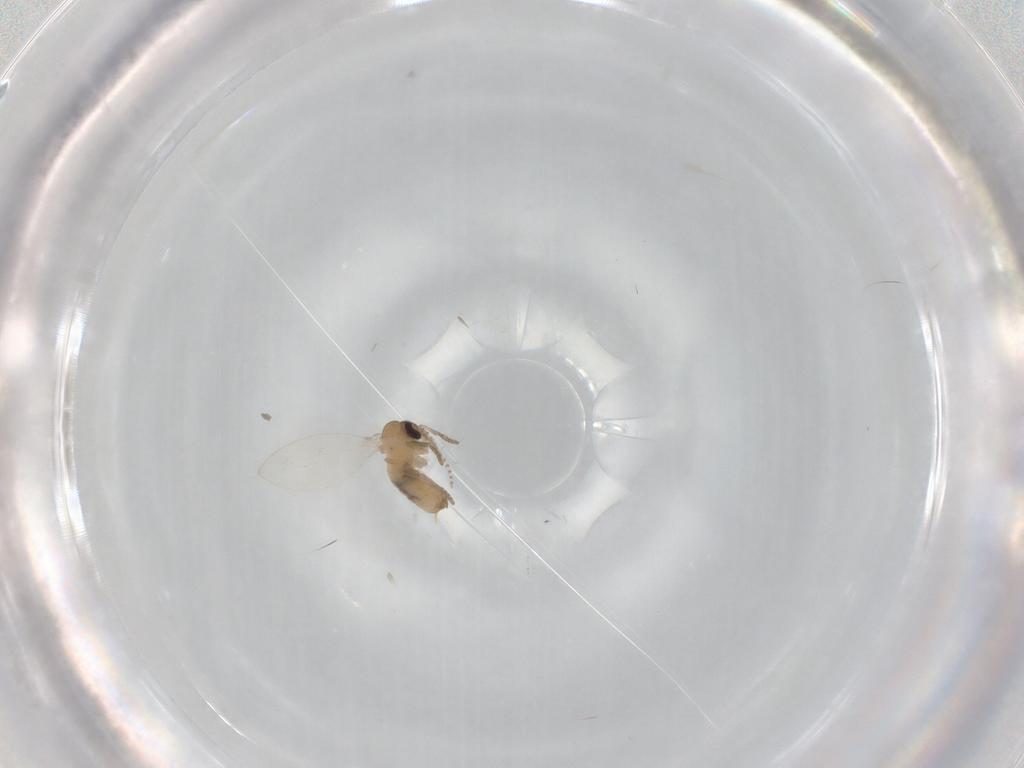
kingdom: Animalia
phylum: Arthropoda
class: Insecta
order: Diptera
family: Psychodidae
